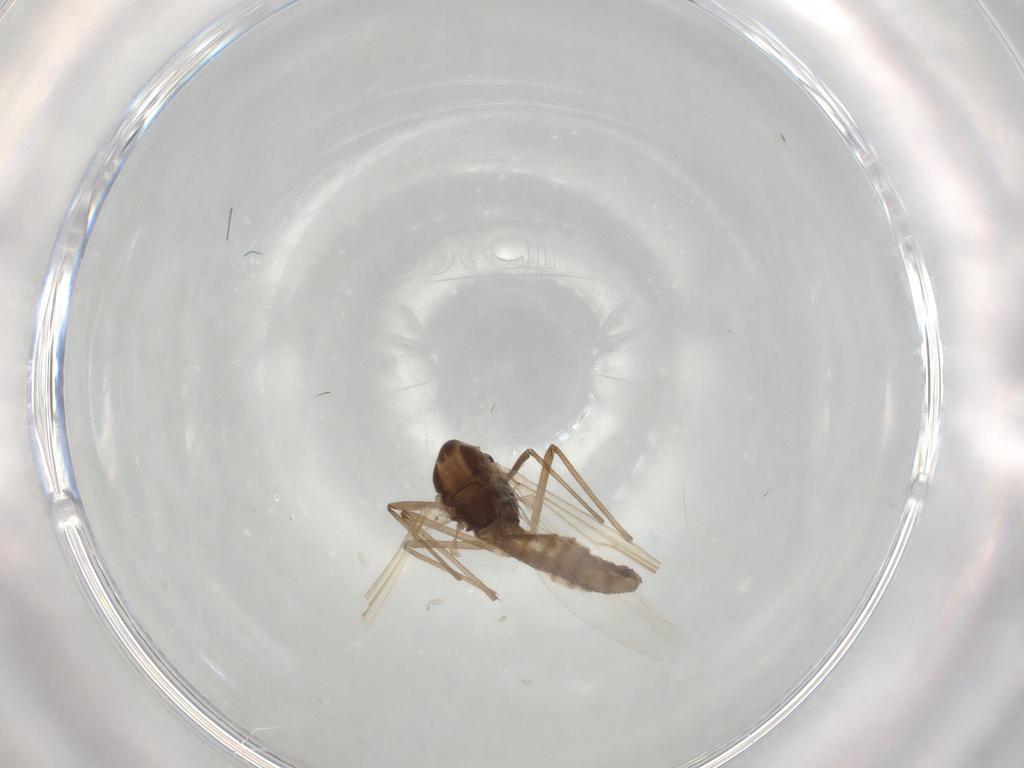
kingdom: Animalia
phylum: Arthropoda
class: Insecta
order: Diptera
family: Chironomidae
